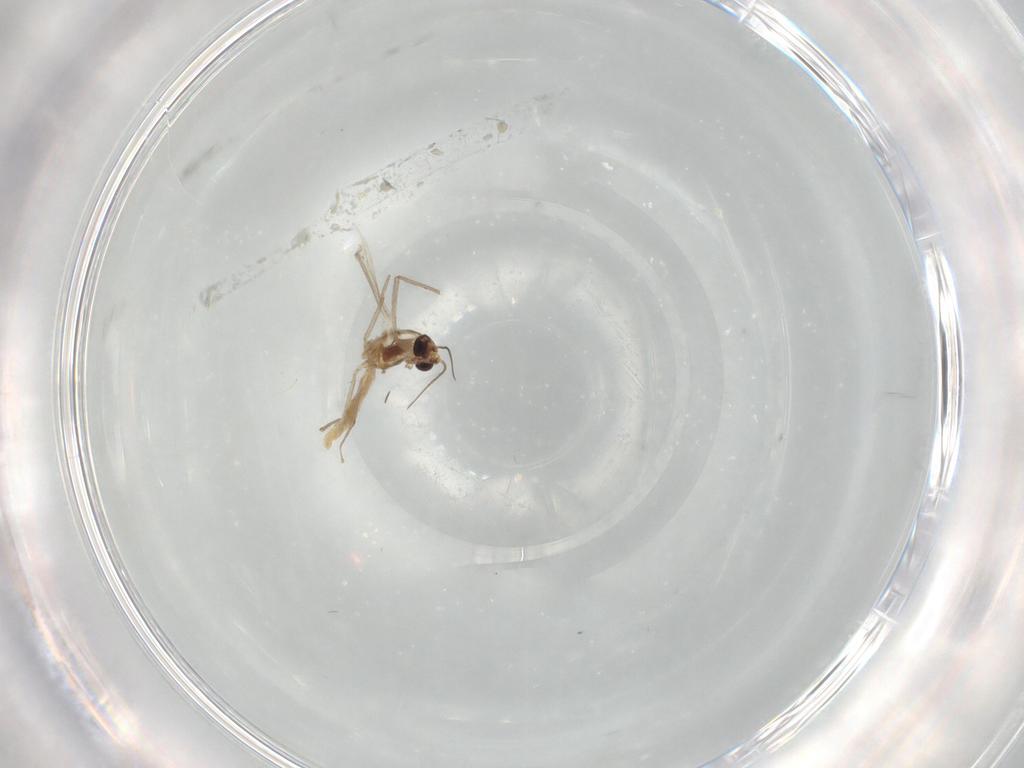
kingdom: Animalia
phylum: Arthropoda
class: Insecta
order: Diptera
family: Chironomidae
